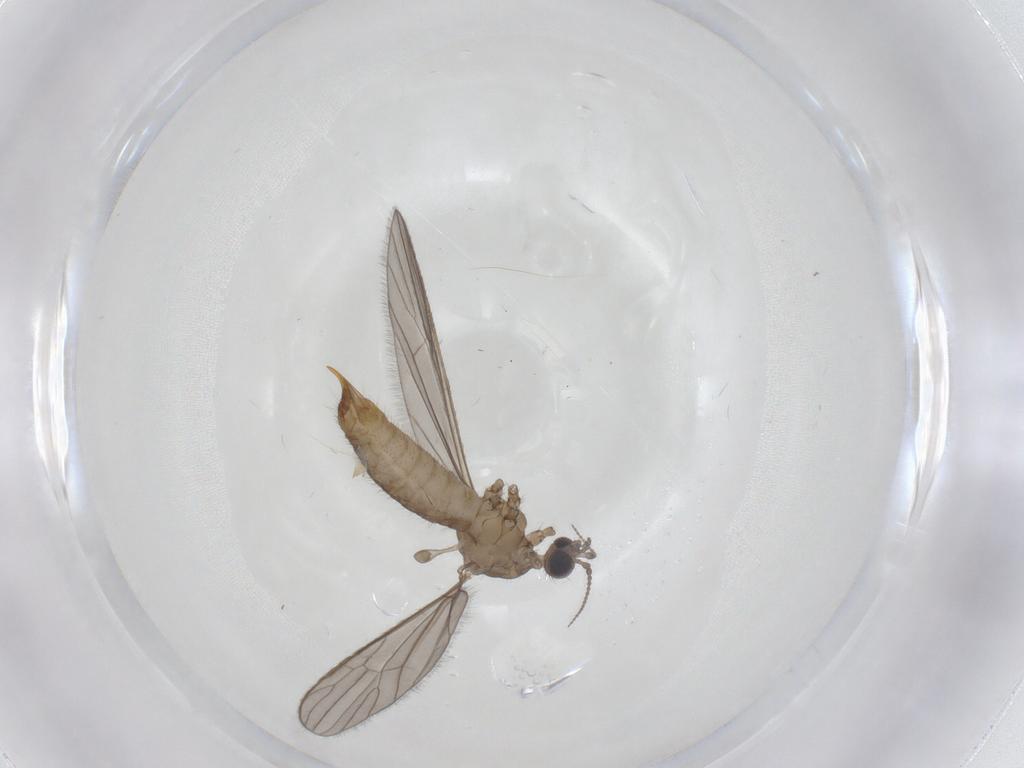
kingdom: Animalia
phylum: Arthropoda
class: Insecta
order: Diptera
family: Limoniidae
